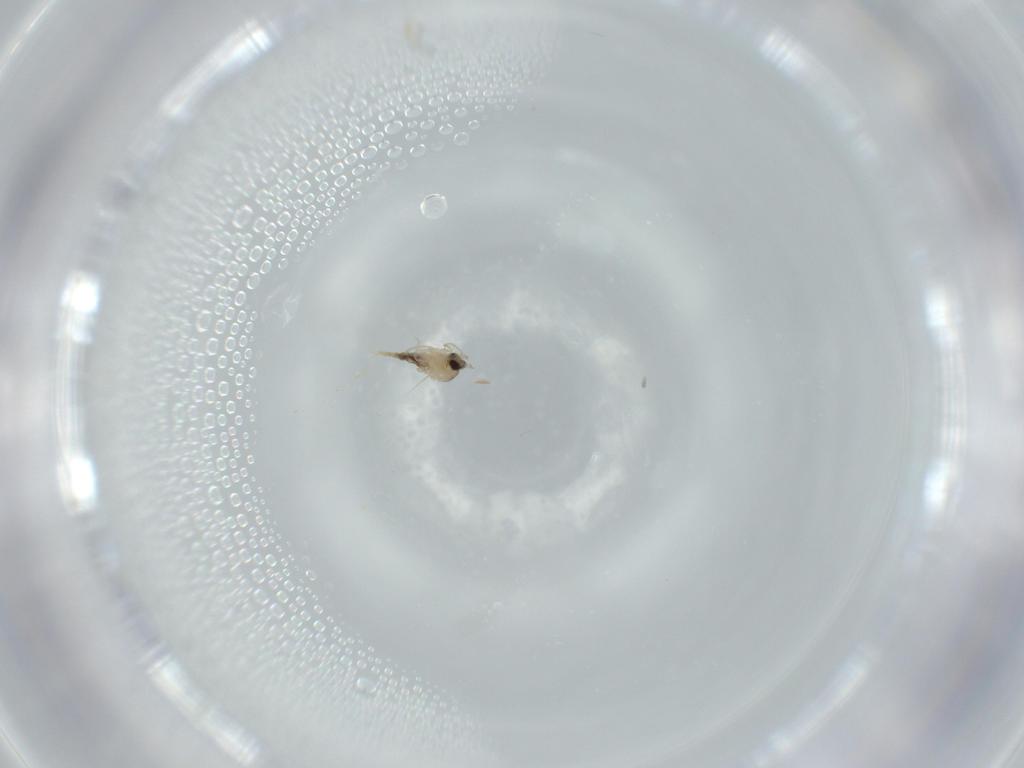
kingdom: Animalia
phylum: Arthropoda
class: Insecta
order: Diptera
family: Cecidomyiidae
